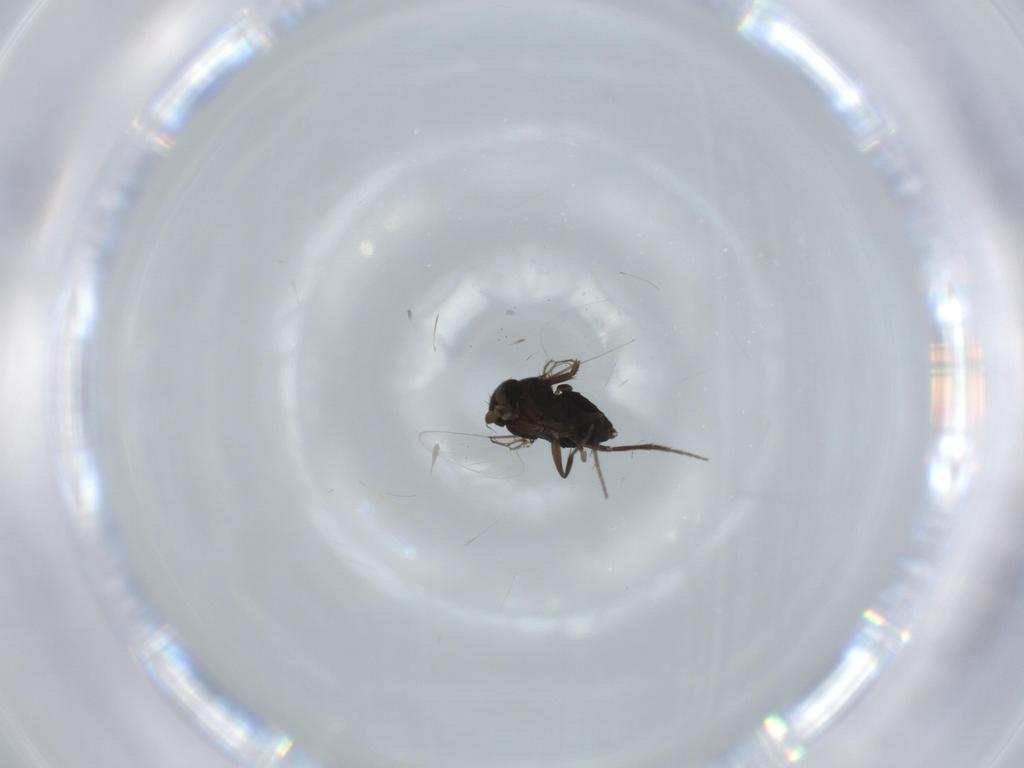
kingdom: Animalia
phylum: Arthropoda
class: Insecta
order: Diptera
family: Phoridae
